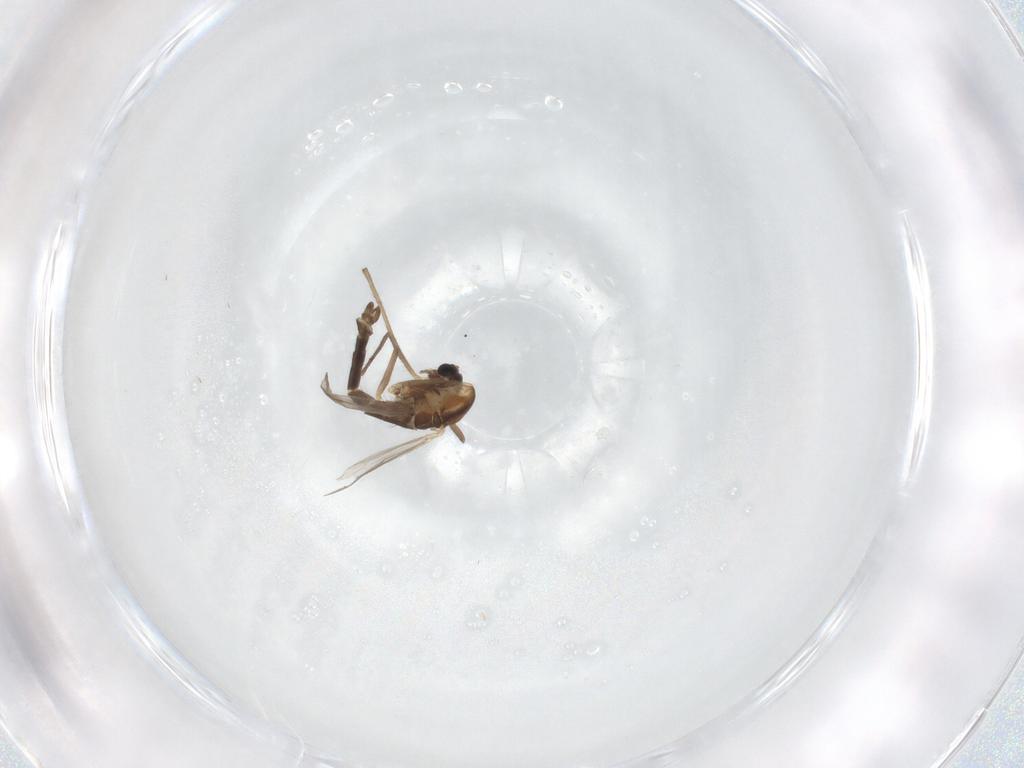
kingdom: Animalia
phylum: Arthropoda
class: Insecta
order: Diptera
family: Chironomidae
